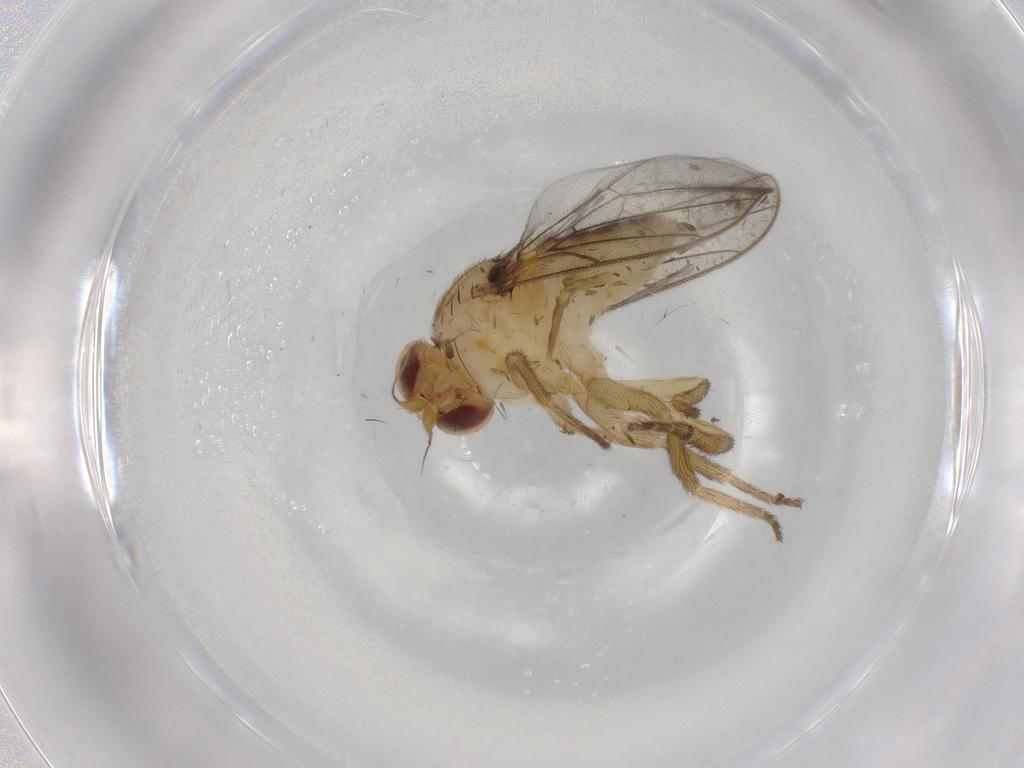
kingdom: Animalia
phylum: Arthropoda
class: Insecta
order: Diptera
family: Chloropidae
